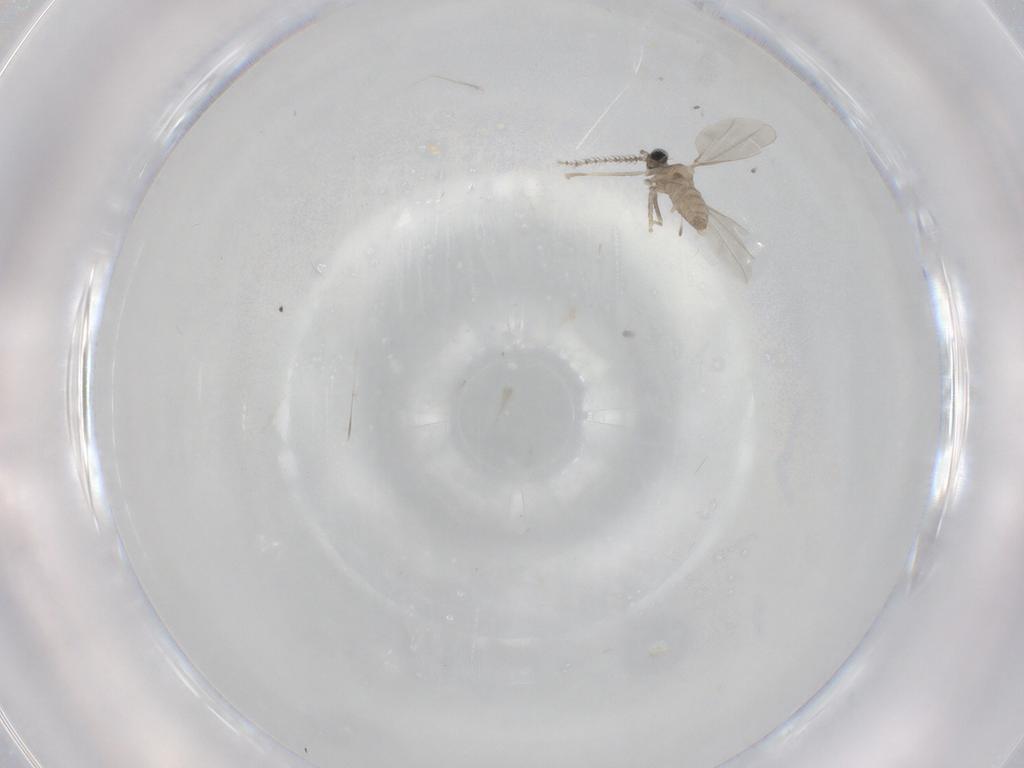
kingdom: Animalia
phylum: Arthropoda
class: Insecta
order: Diptera
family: Cecidomyiidae
